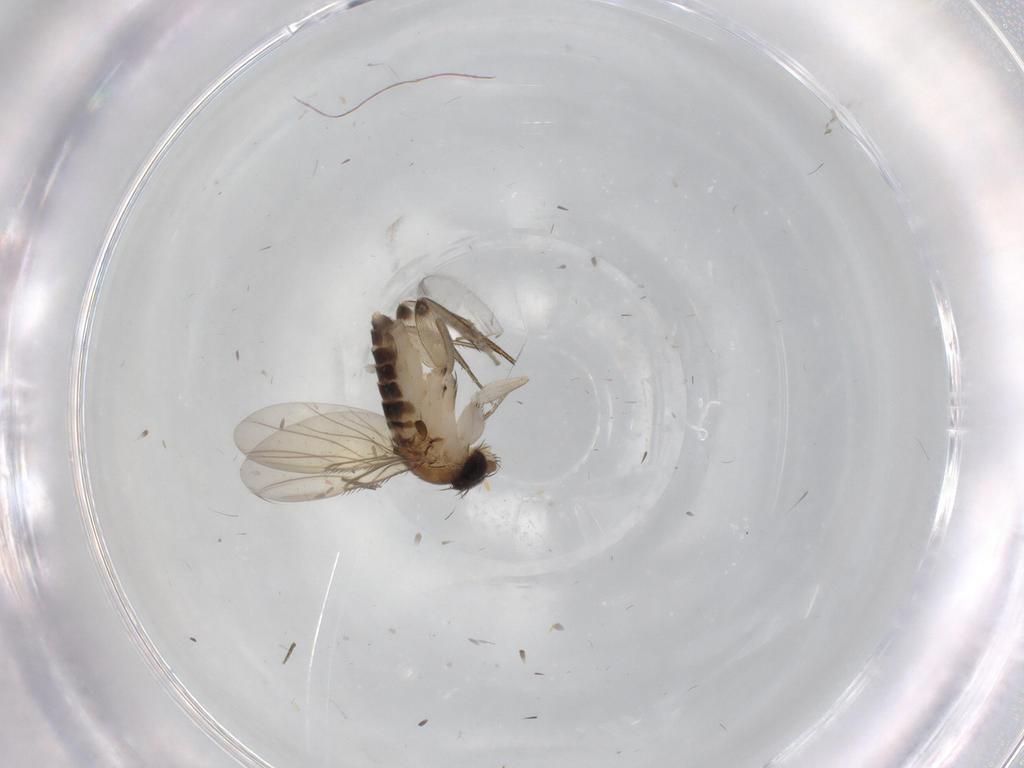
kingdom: Animalia
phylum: Arthropoda
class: Insecta
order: Diptera
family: Phoridae
